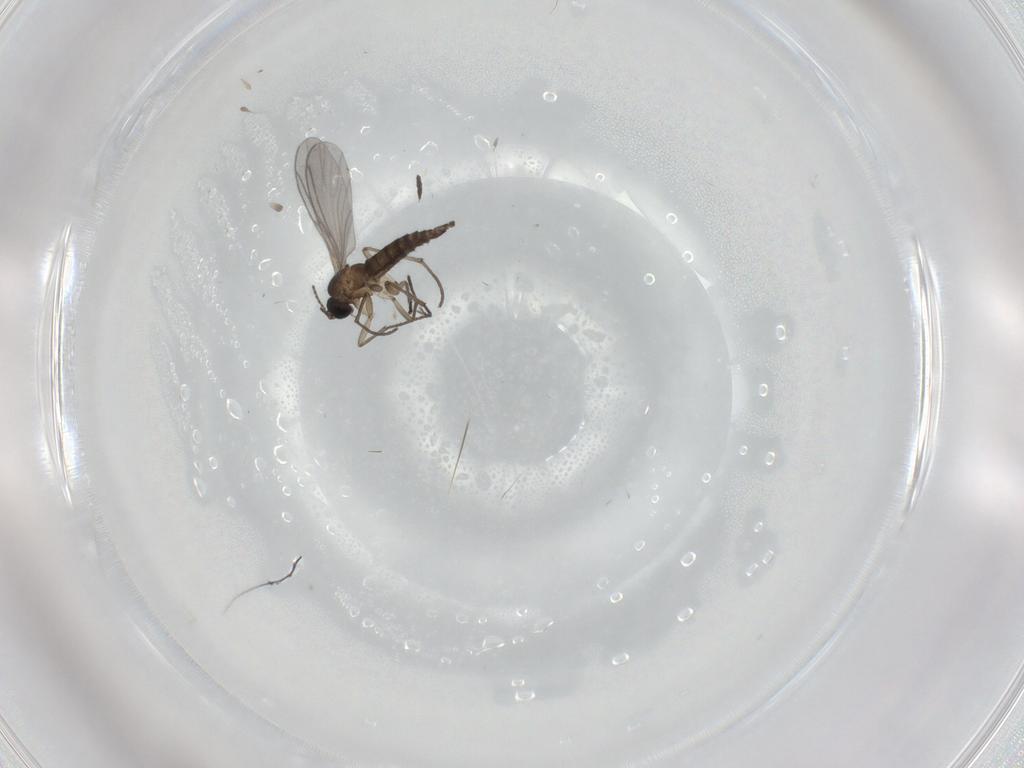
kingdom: Animalia
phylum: Arthropoda
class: Insecta
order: Diptera
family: Sciaridae
